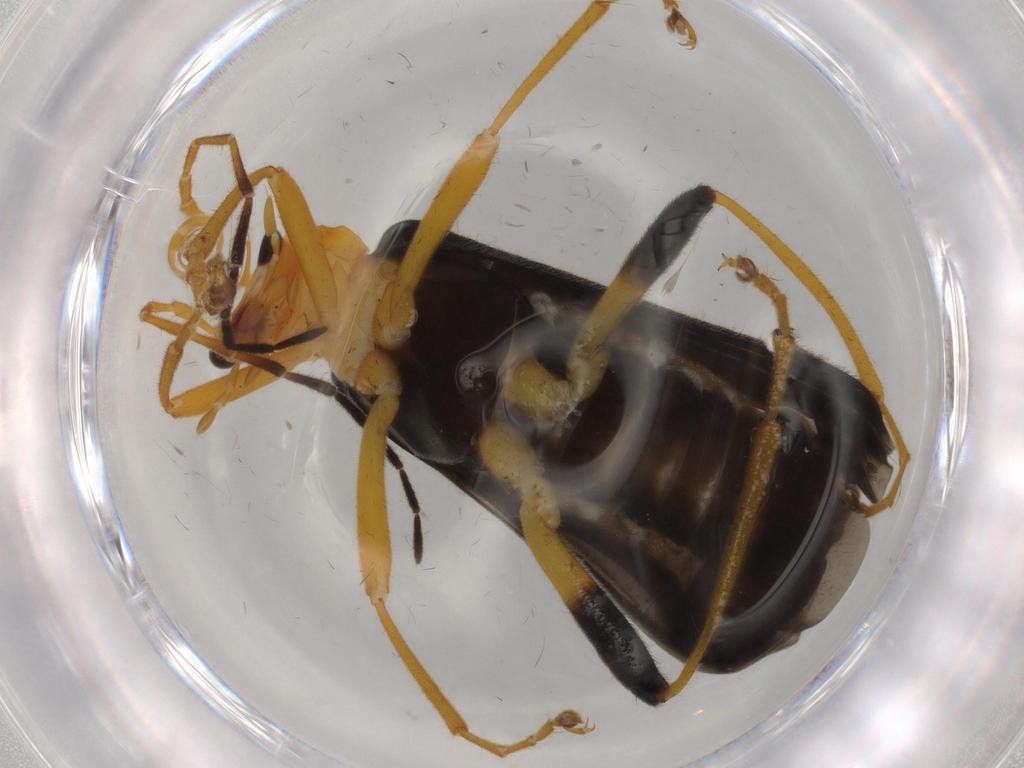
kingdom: Animalia
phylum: Arthropoda
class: Insecta
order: Coleoptera
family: Cantharidae
